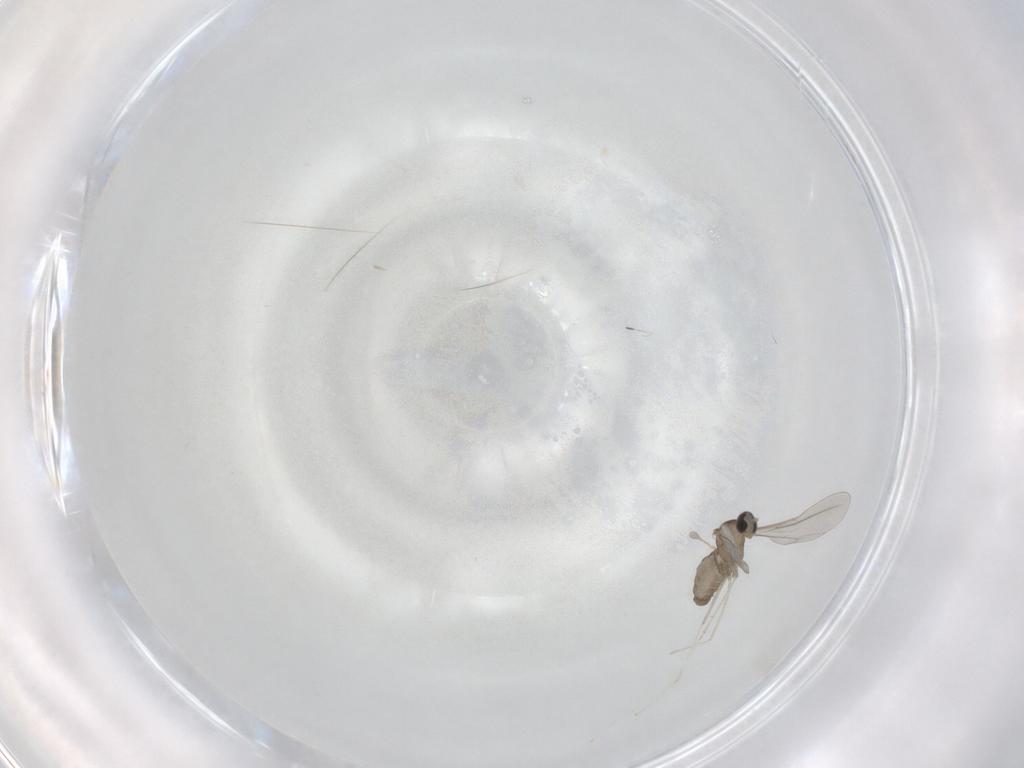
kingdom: Animalia
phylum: Arthropoda
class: Insecta
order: Diptera
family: Cecidomyiidae
